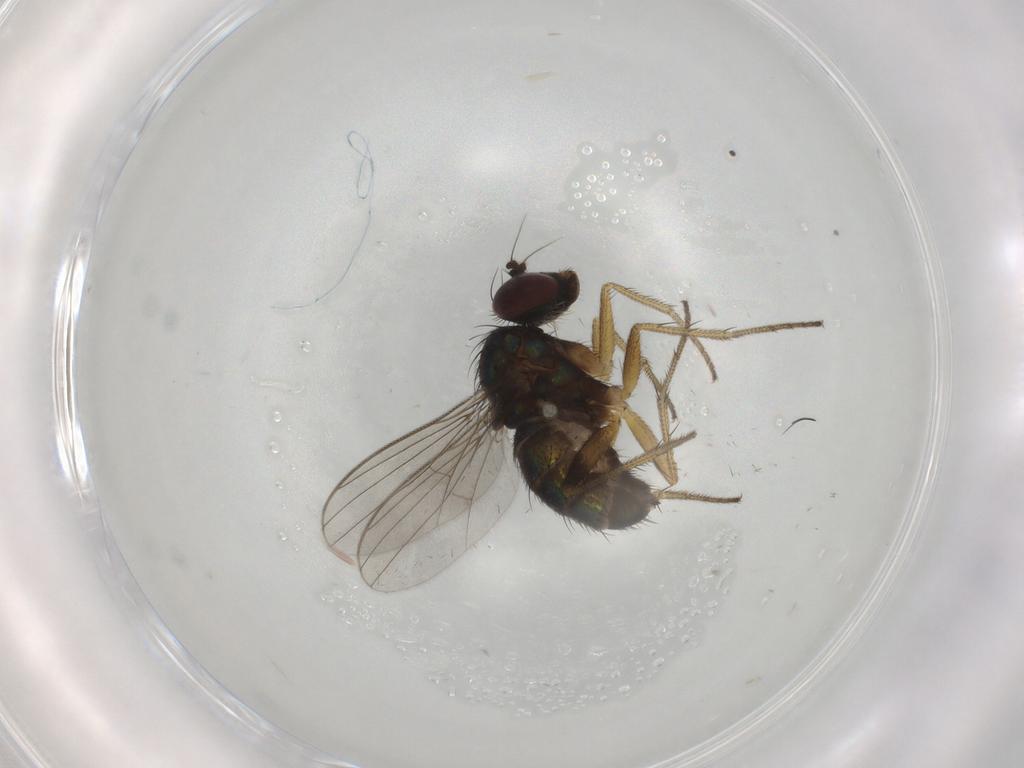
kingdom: Animalia
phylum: Arthropoda
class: Insecta
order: Diptera
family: Dolichopodidae
